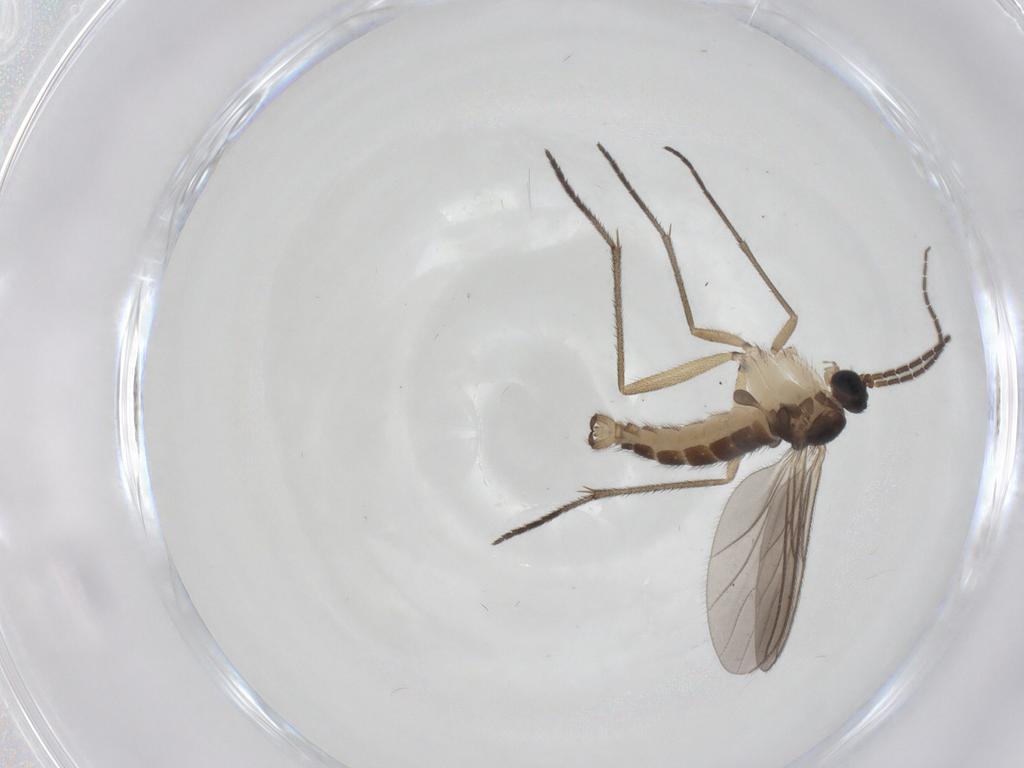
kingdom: Animalia
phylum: Arthropoda
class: Insecta
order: Diptera
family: Sciaridae
